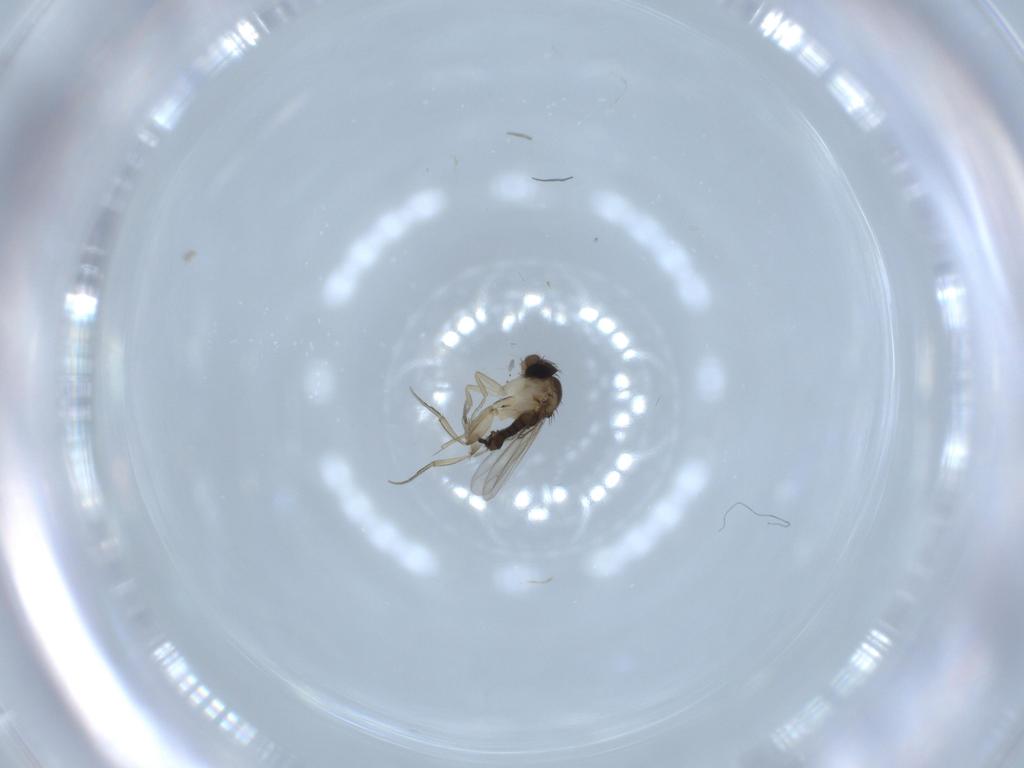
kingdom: Animalia
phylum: Arthropoda
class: Insecta
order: Diptera
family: Phoridae
